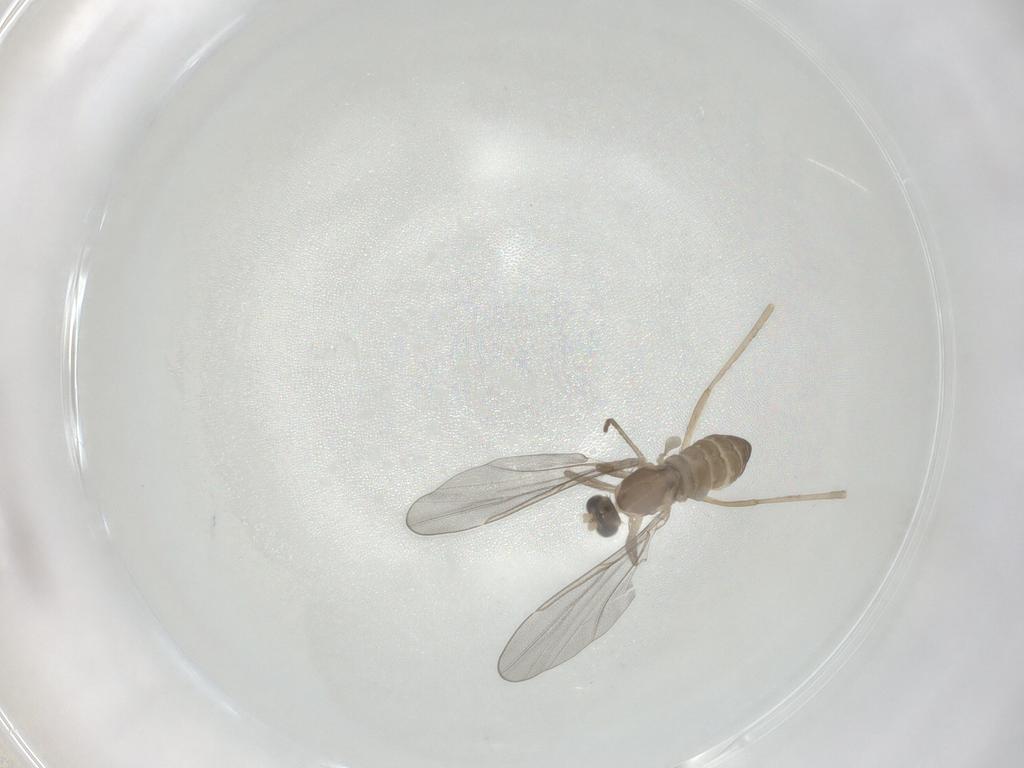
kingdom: Animalia
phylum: Arthropoda
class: Insecta
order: Diptera
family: Cecidomyiidae
